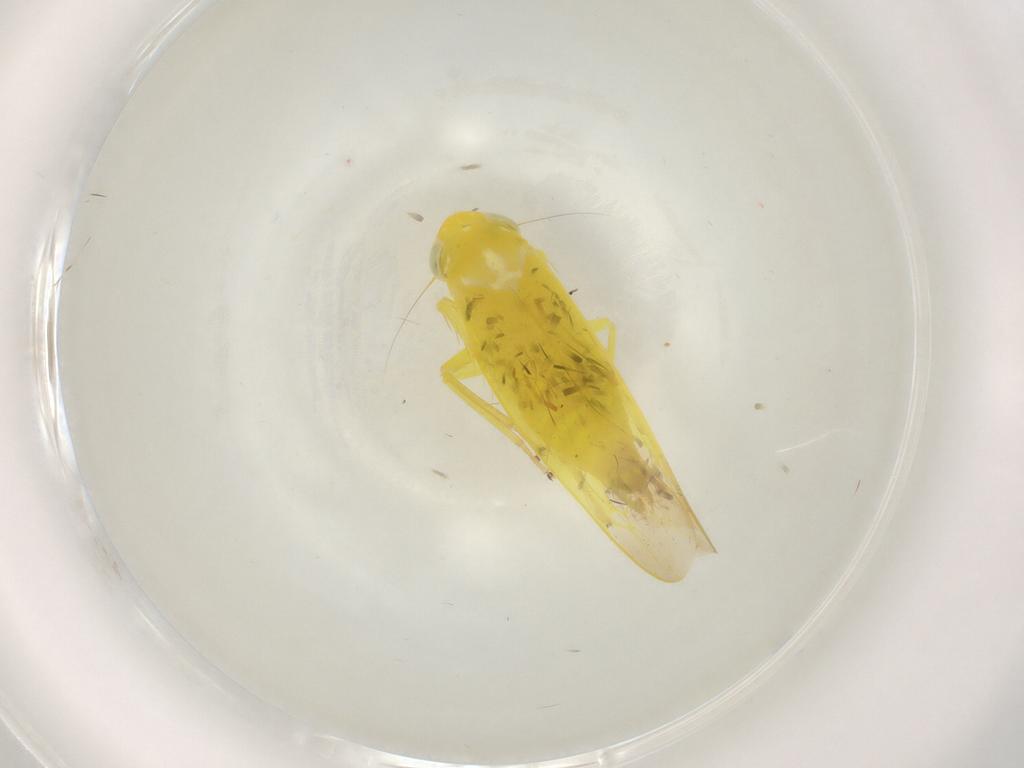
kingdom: Animalia
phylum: Arthropoda
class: Insecta
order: Hemiptera
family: Cicadellidae
